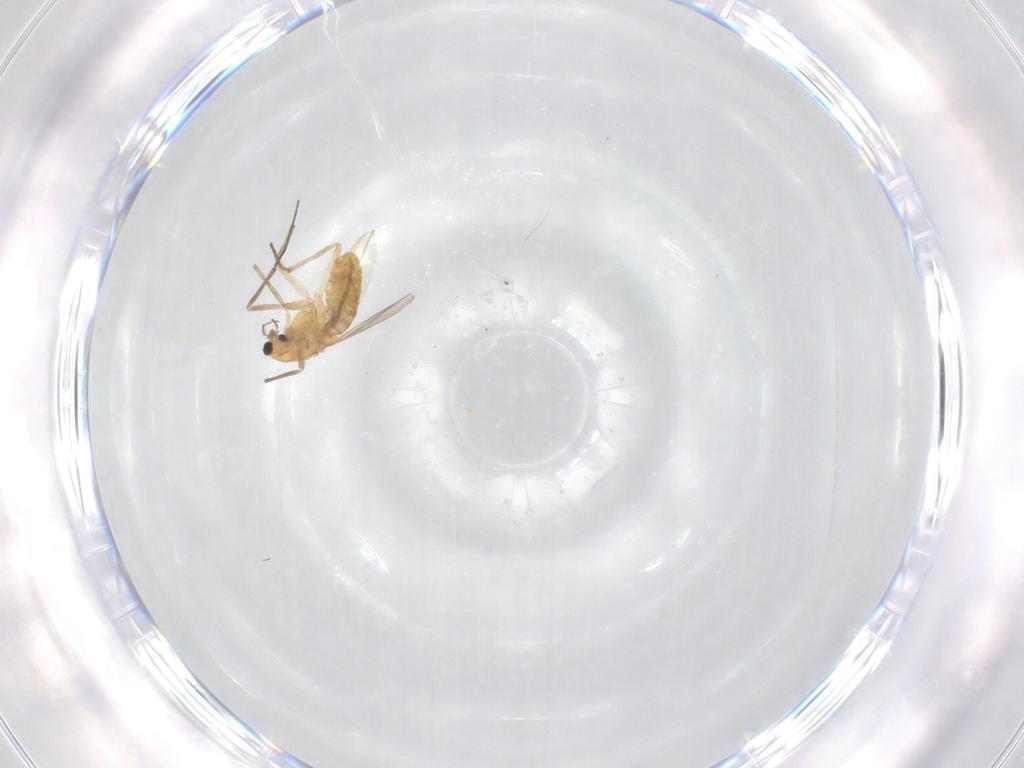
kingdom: Animalia
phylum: Arthropoda
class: Insecta
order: Diptera
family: Chironomidae
